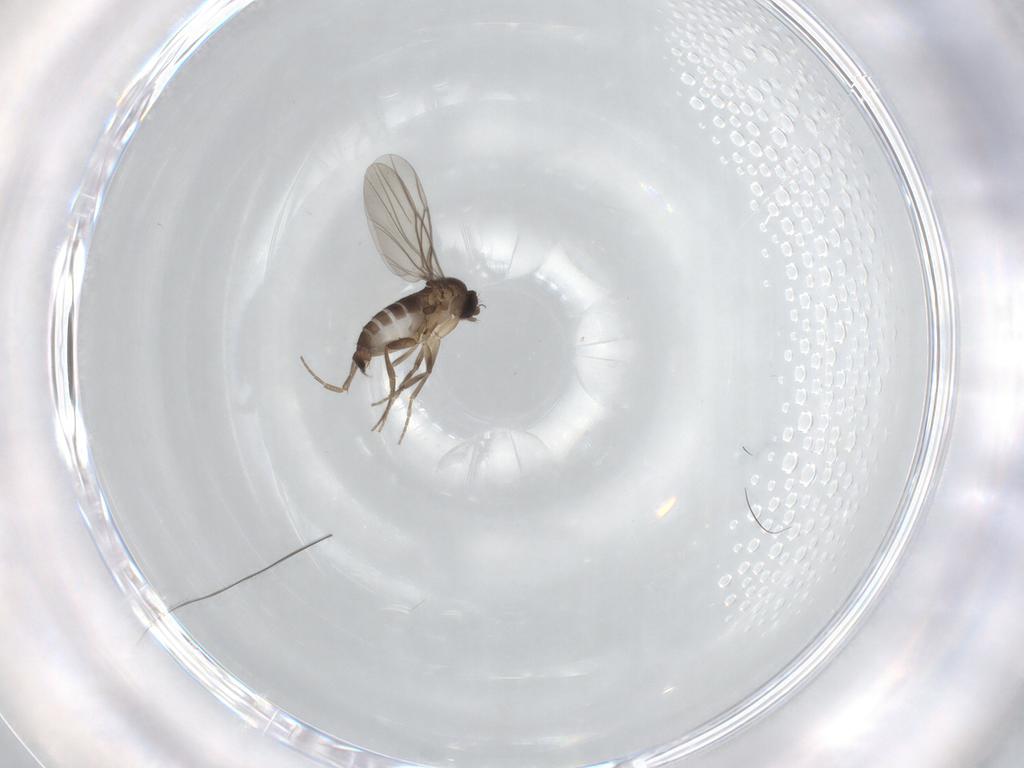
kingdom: Animalia
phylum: Arthropoda
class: Insecta
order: Diptera
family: Phoridae
